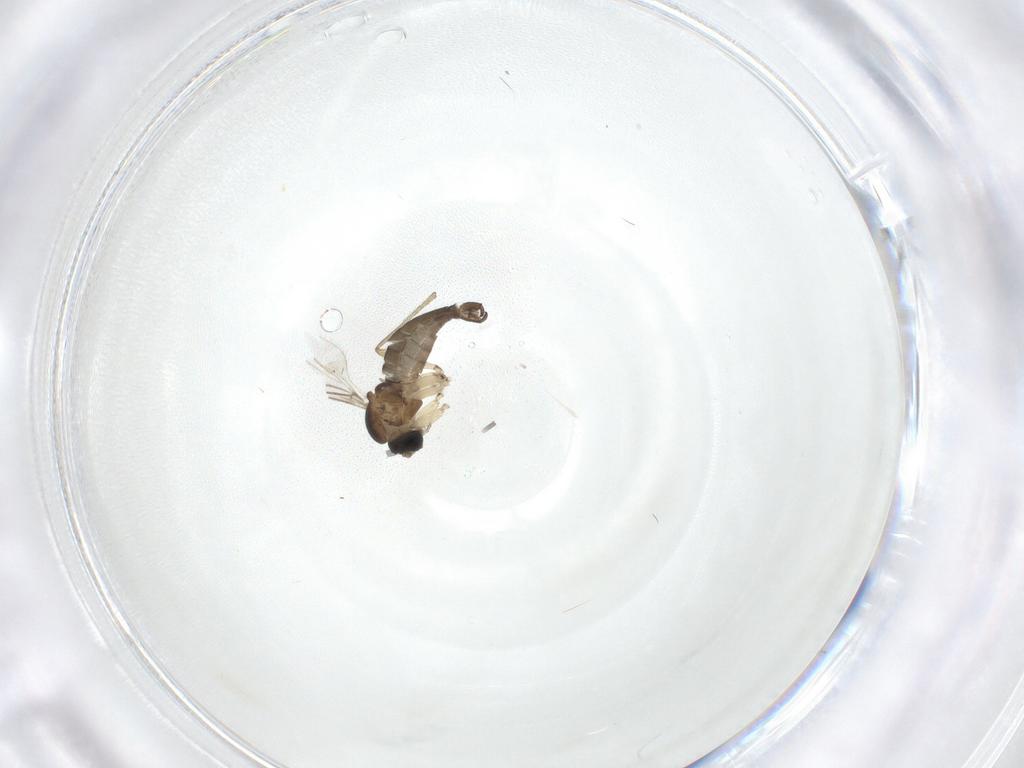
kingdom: Animalia
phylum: Arthropoda
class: Insecta
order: Diptera
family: Sciaridae
